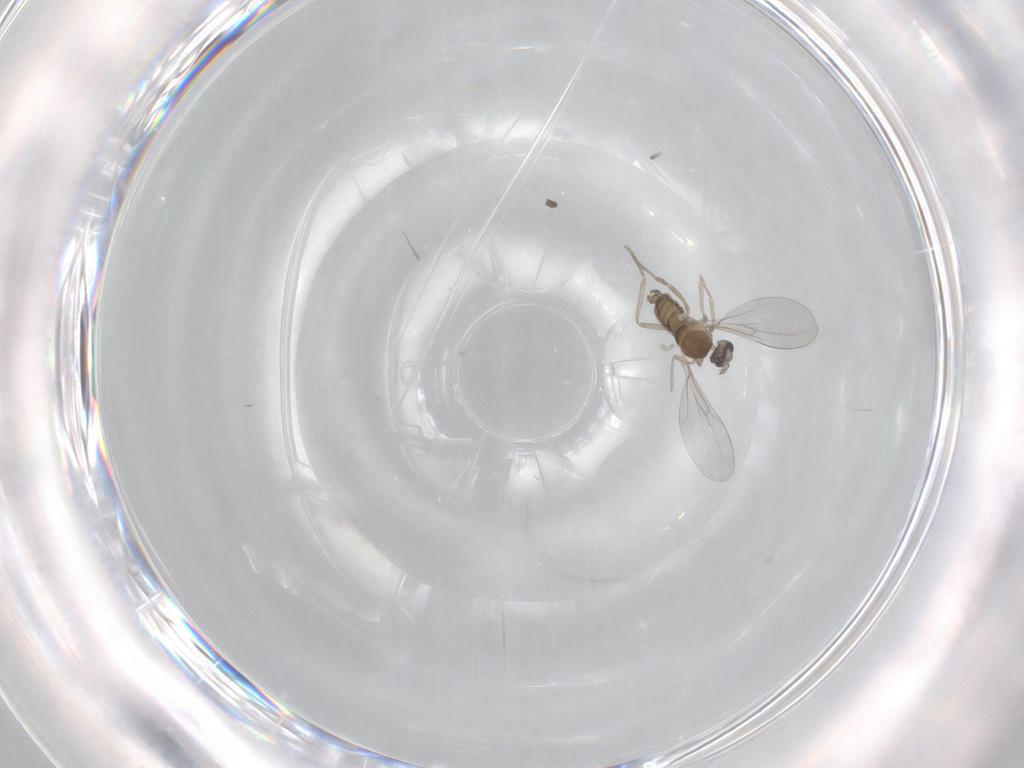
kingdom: Animalia
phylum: Arthropoda
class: Insecta
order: Diptera
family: Cecidomyiidae
